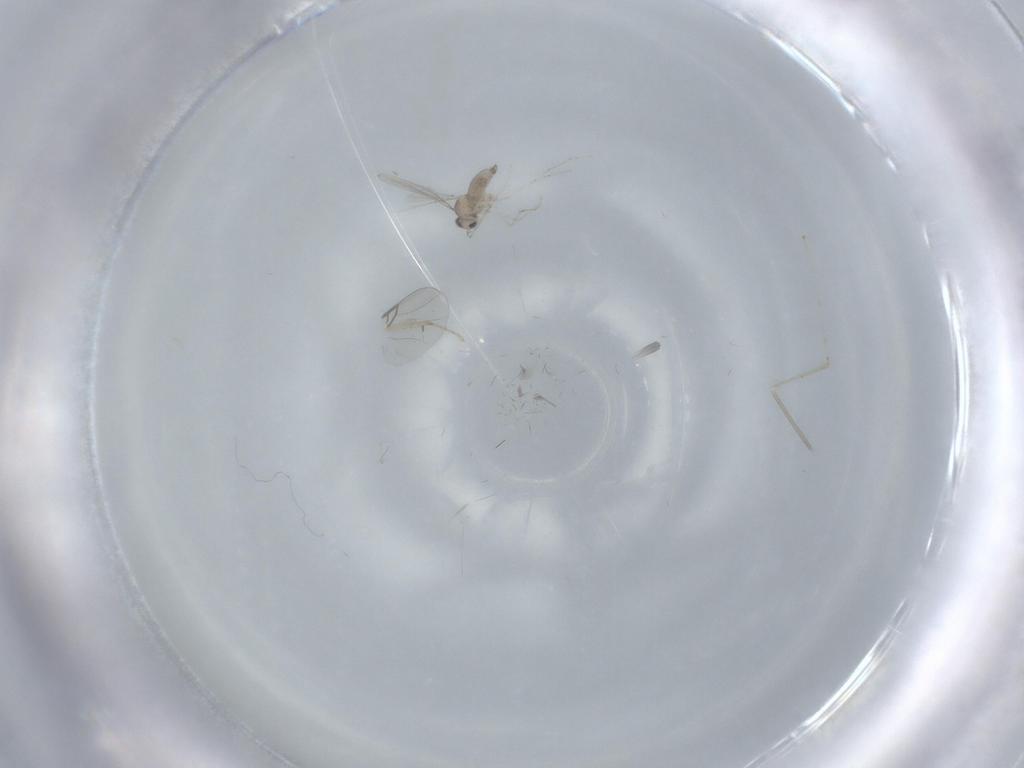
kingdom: Animalia
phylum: Arthropoda
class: Insecta
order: Diptera
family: Cecidomyiidae
